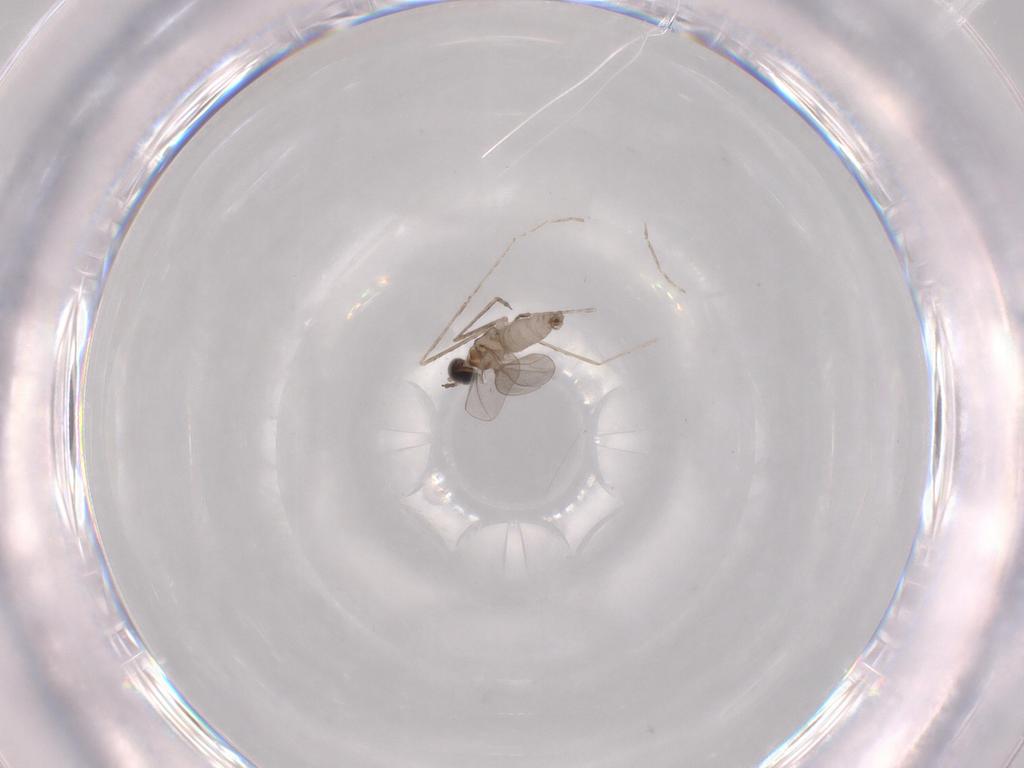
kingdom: Animalia
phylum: Arthropoda
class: Insecta
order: Diptera
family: Cecidomyiidae
